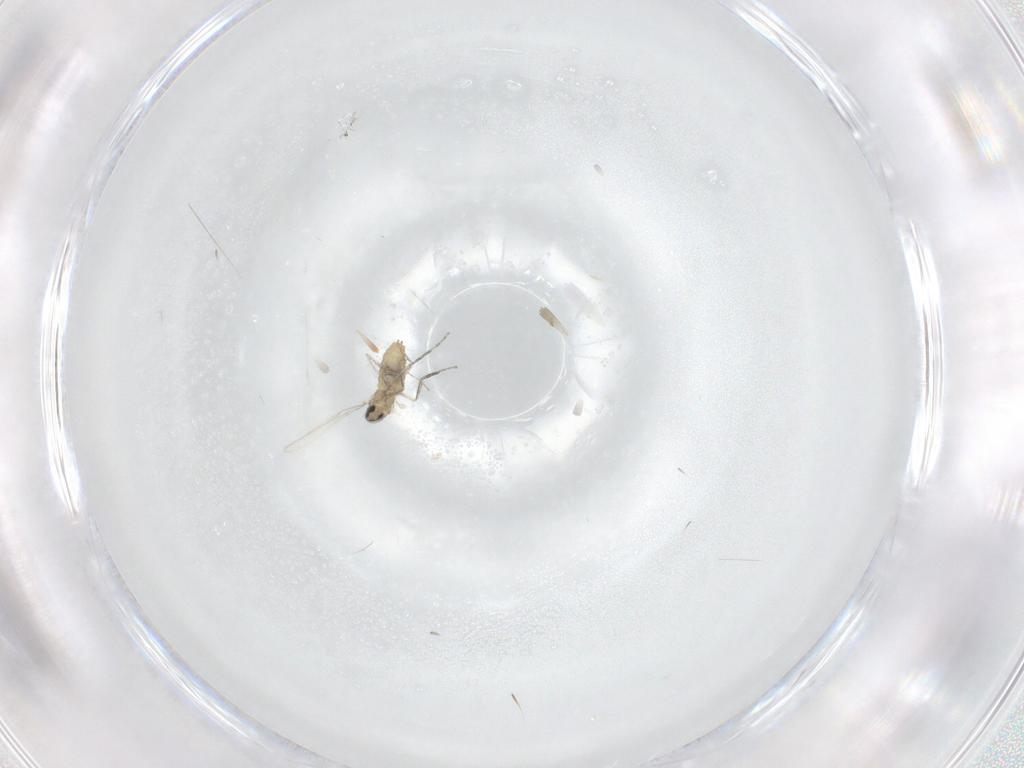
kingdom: Animalia
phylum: Arthropoda
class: Insecta
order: Diptera
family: Cecidomyiidae
